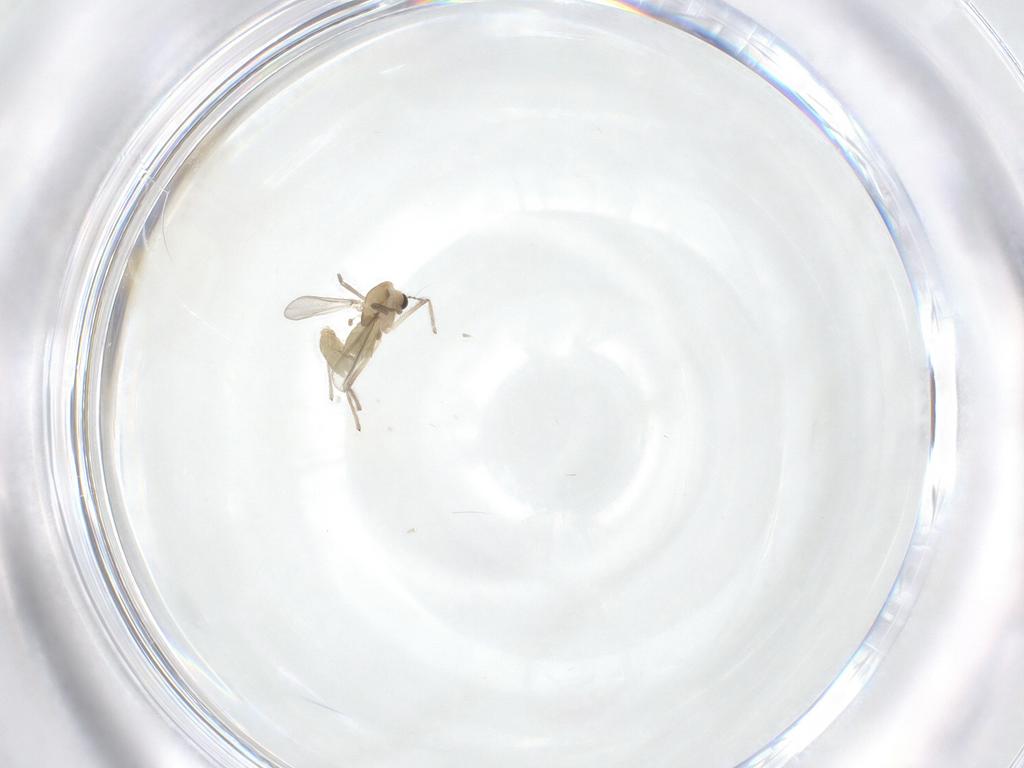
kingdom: Animalia
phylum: Arthropoda
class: Insecta
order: Diptera
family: Chironomidae
